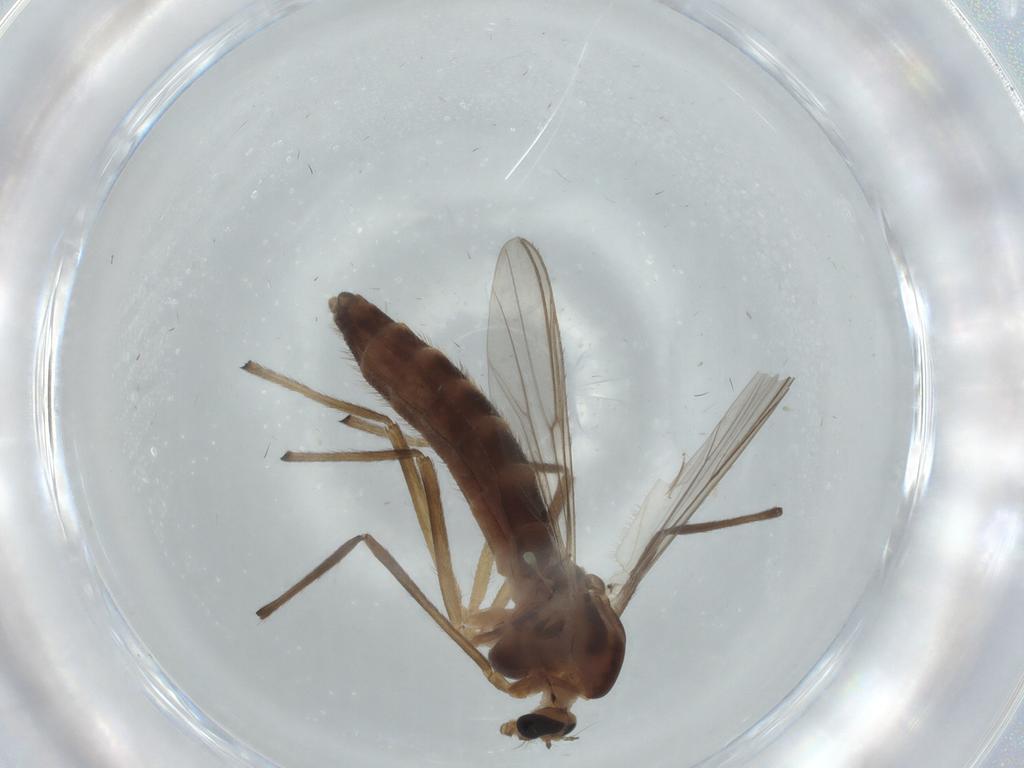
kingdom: Animalia
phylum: Arthropoda
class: Insecta
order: Diptera
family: Chironomidae
